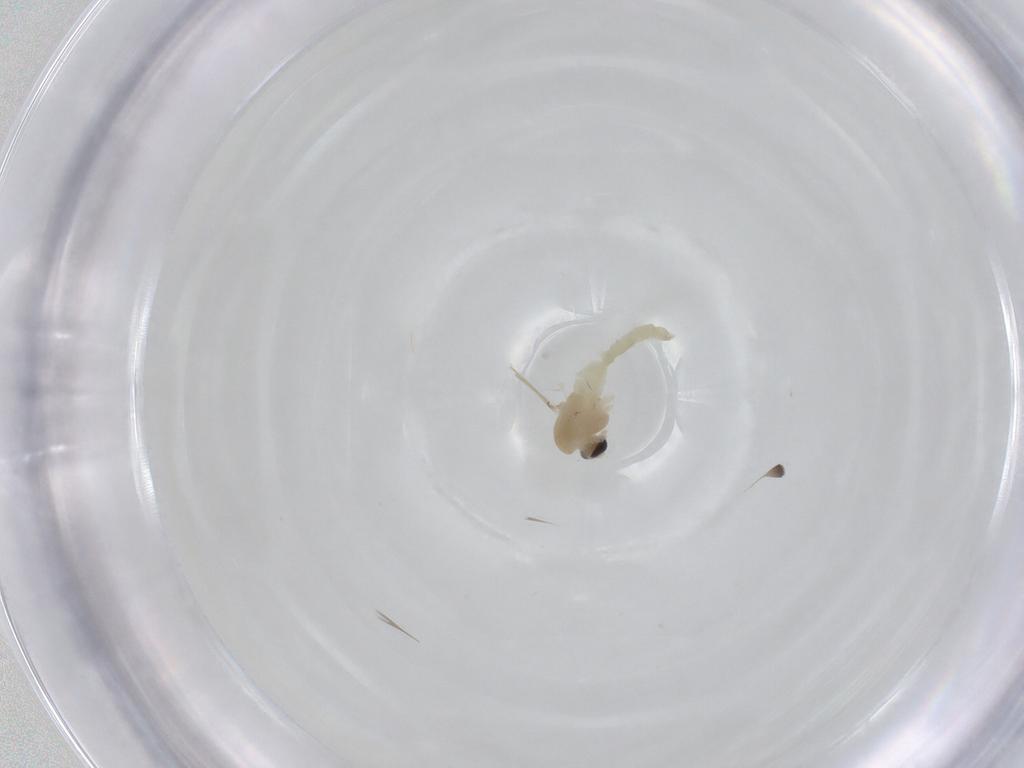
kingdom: Animalia
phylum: Arthropoda
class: Insecta
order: Diptera
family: Chironomidae
